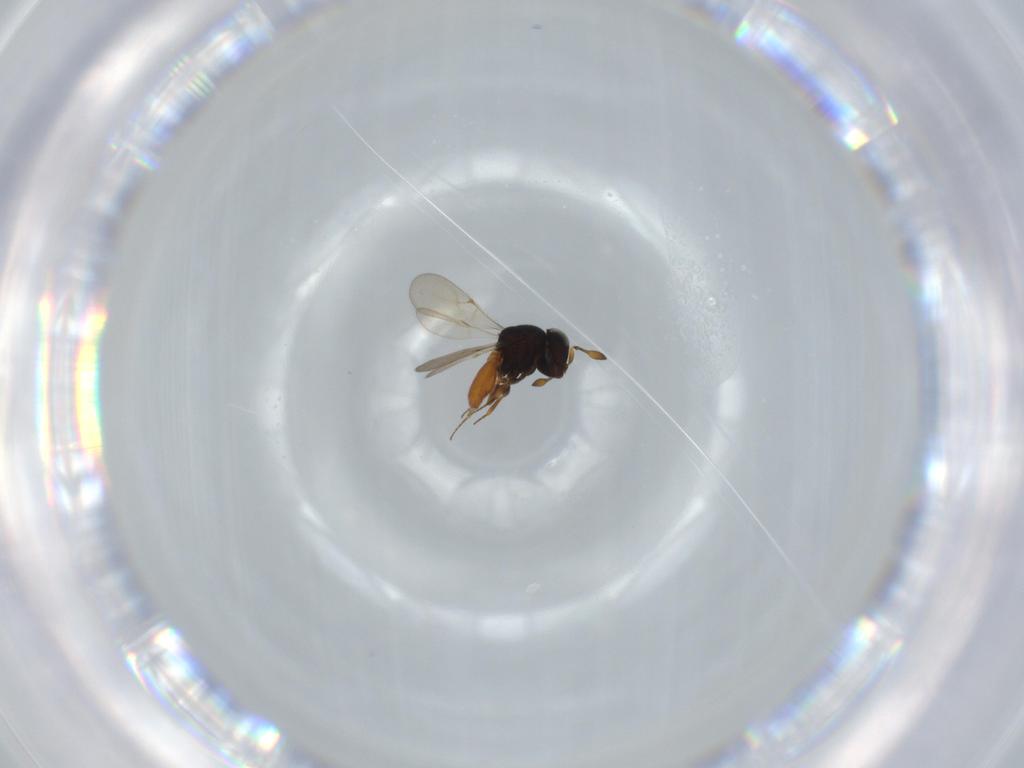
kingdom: Animalia
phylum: Arthropoda
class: Insecta
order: Hymenoptera
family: Scelionidae
